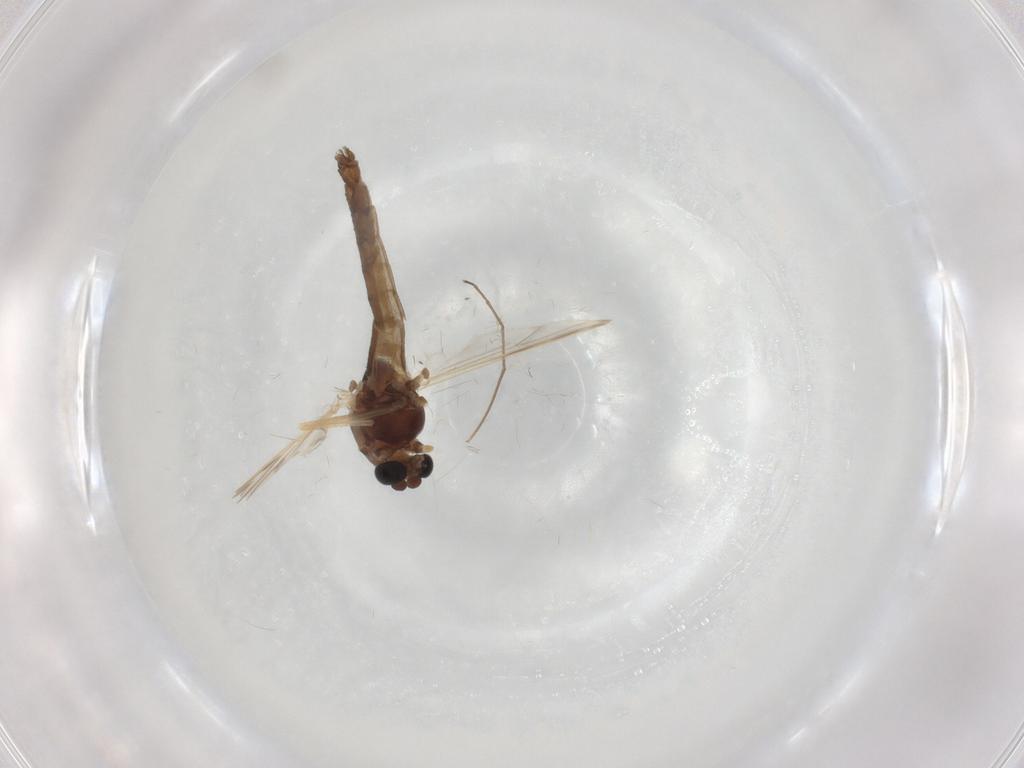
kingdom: Animalia
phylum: Arthropoda
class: Insecta
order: Diptera
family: Chironomidae
